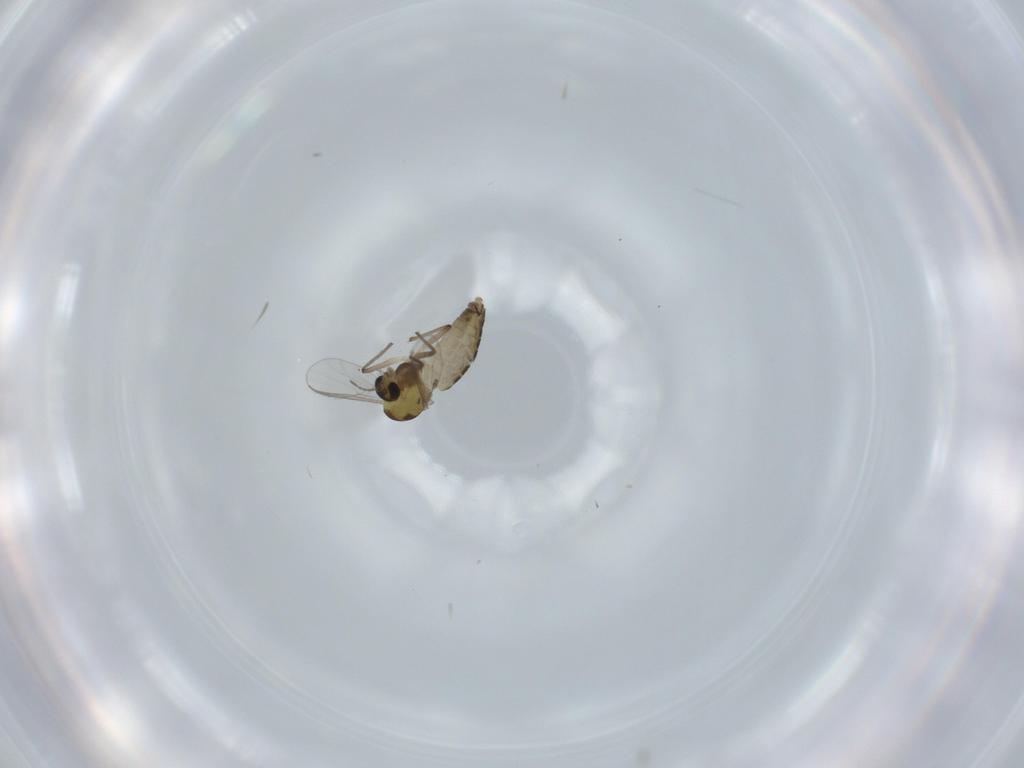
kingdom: Animalia
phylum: Arthropoda
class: Insecta
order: Diptera
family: Chironomidae
